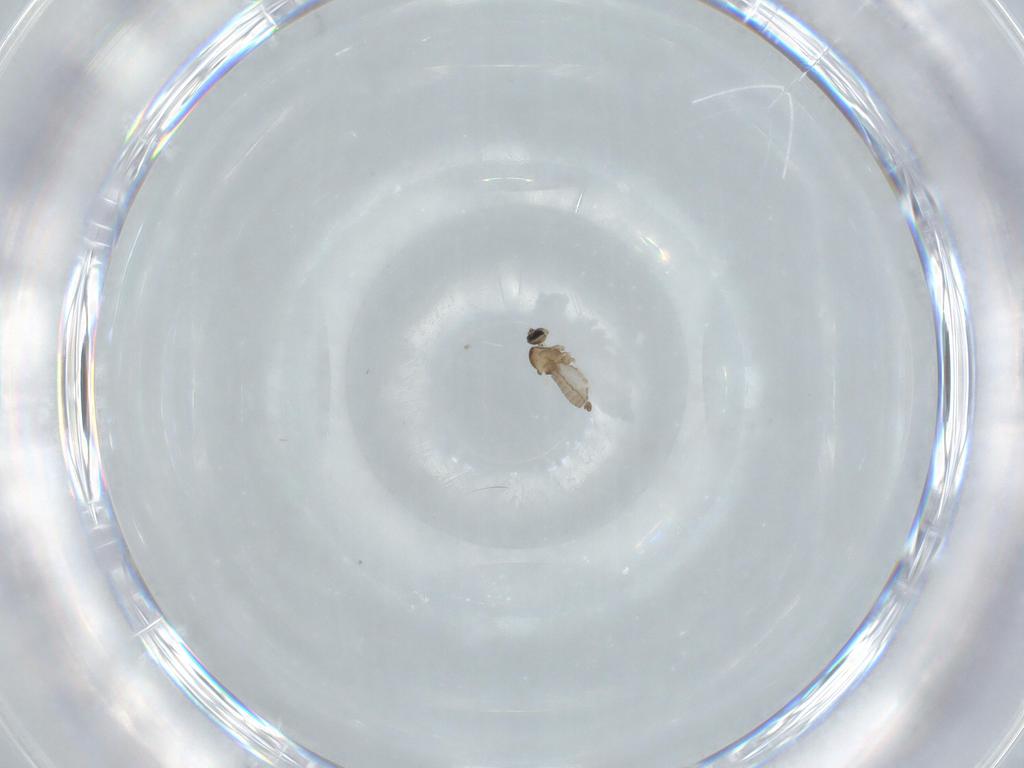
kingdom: Animalia
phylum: Arthropoda
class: Insecta
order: Diptera
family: Cecidomyiidae
